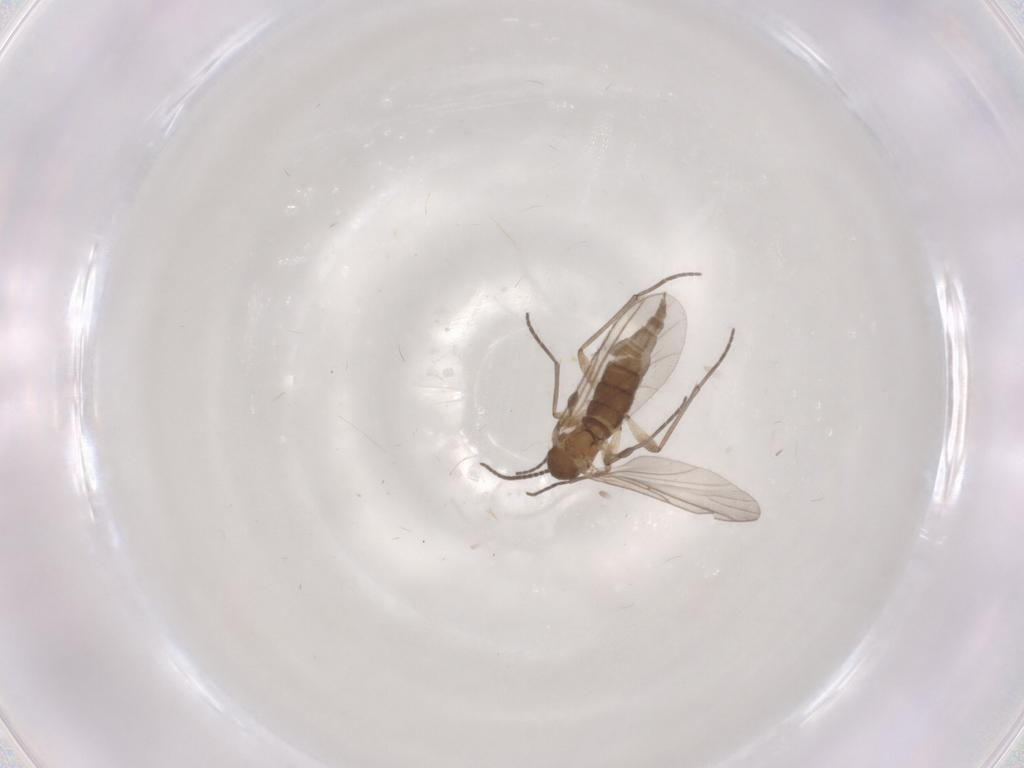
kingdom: Animalia
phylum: Arthropoda
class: Insecta
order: Diptera
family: Sciaridae
